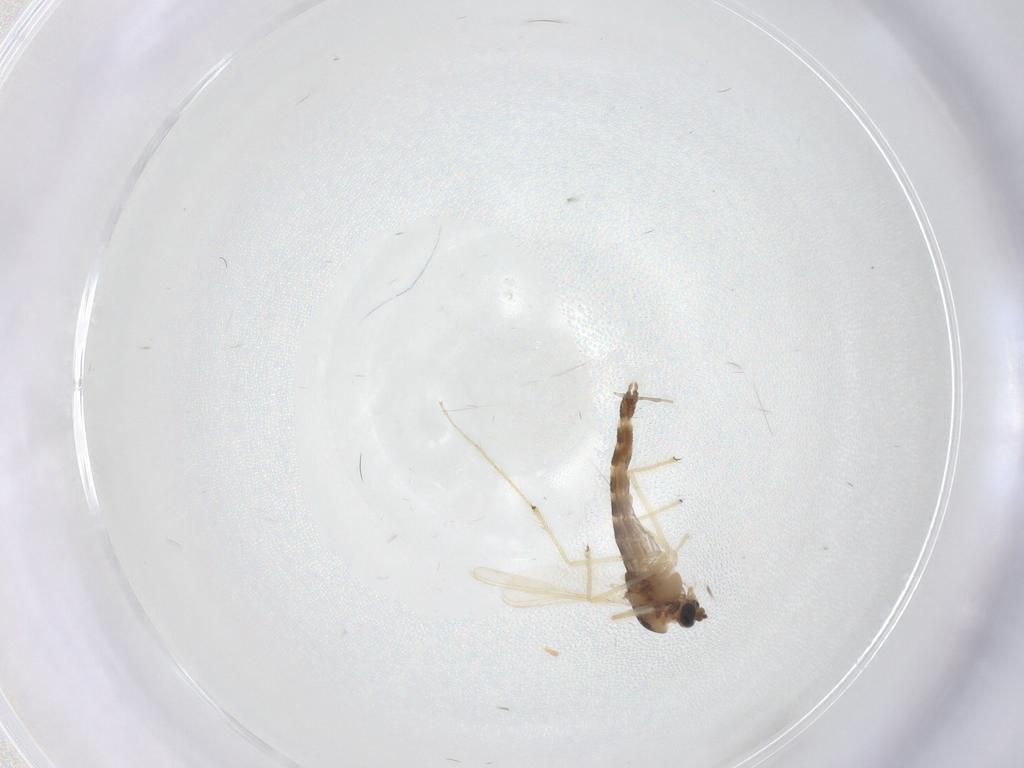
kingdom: Animalia
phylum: Arthropoda
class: Insecta
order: Diptera
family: Chironomidae
